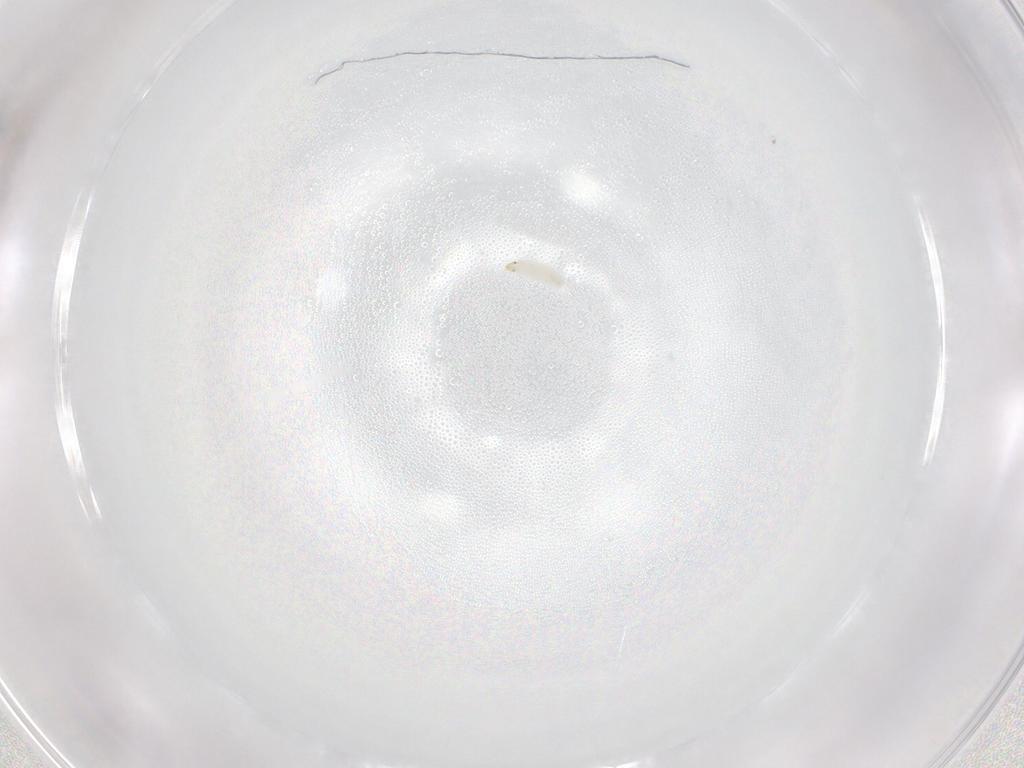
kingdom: Animalia
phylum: Arthropoda
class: Insecta
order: Diptera
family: Stratiomyidae
